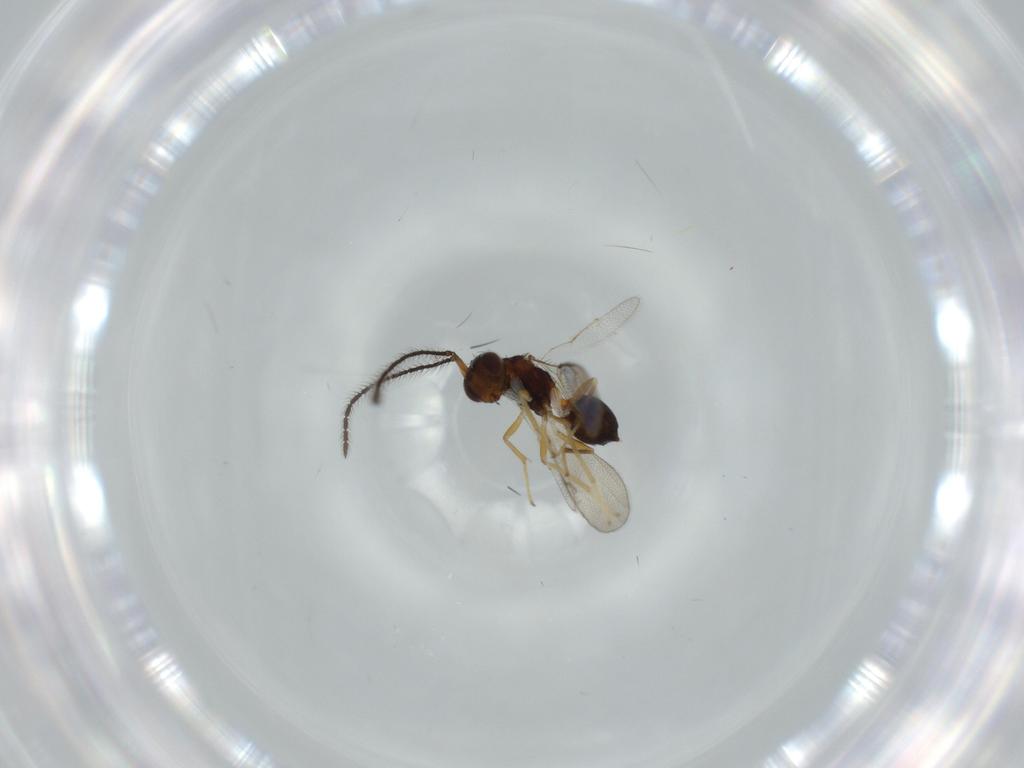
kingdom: Animalia
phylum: Arthropoda
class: Insecta
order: Hymenoptera
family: Diparidae
